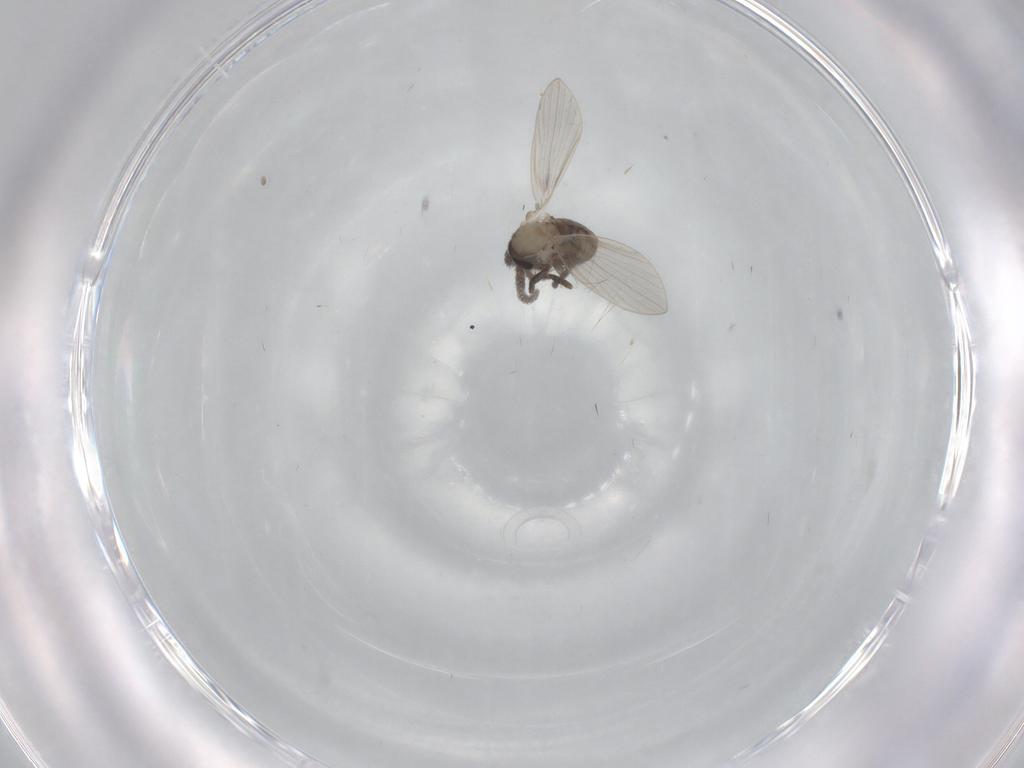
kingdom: Animalia
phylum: Arthropoda
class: Insecta
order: Diptera
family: Psychodidae
